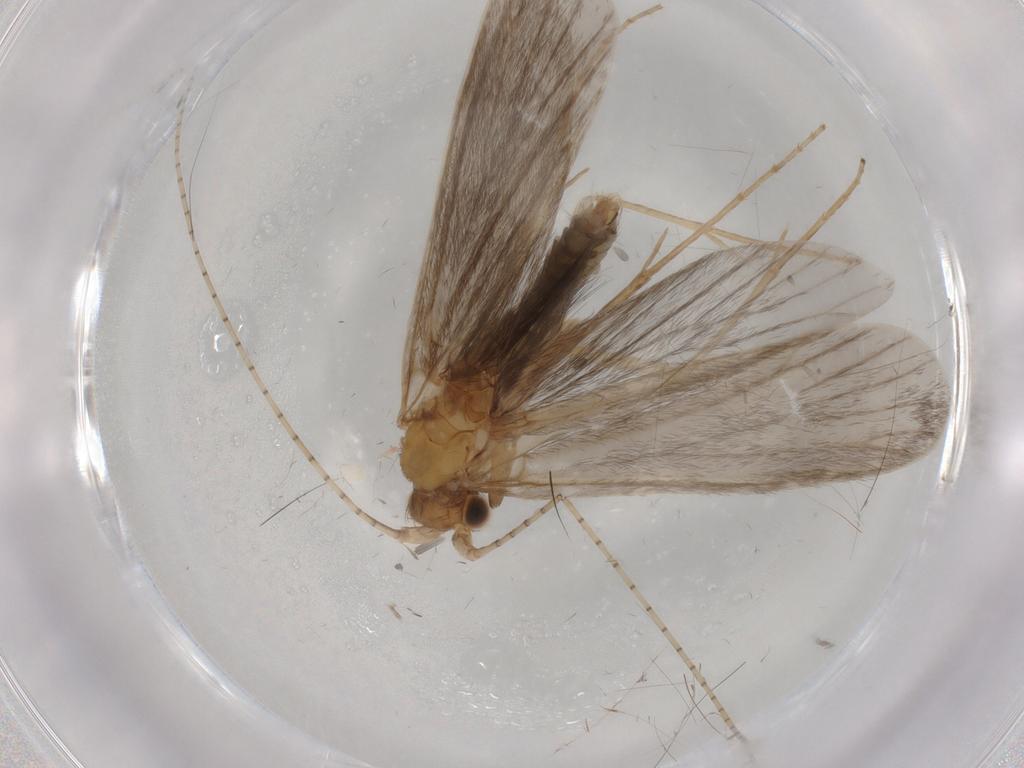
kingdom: Animalia
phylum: Arthropoda
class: Insecta
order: Trichoptera
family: Leptoceridae
